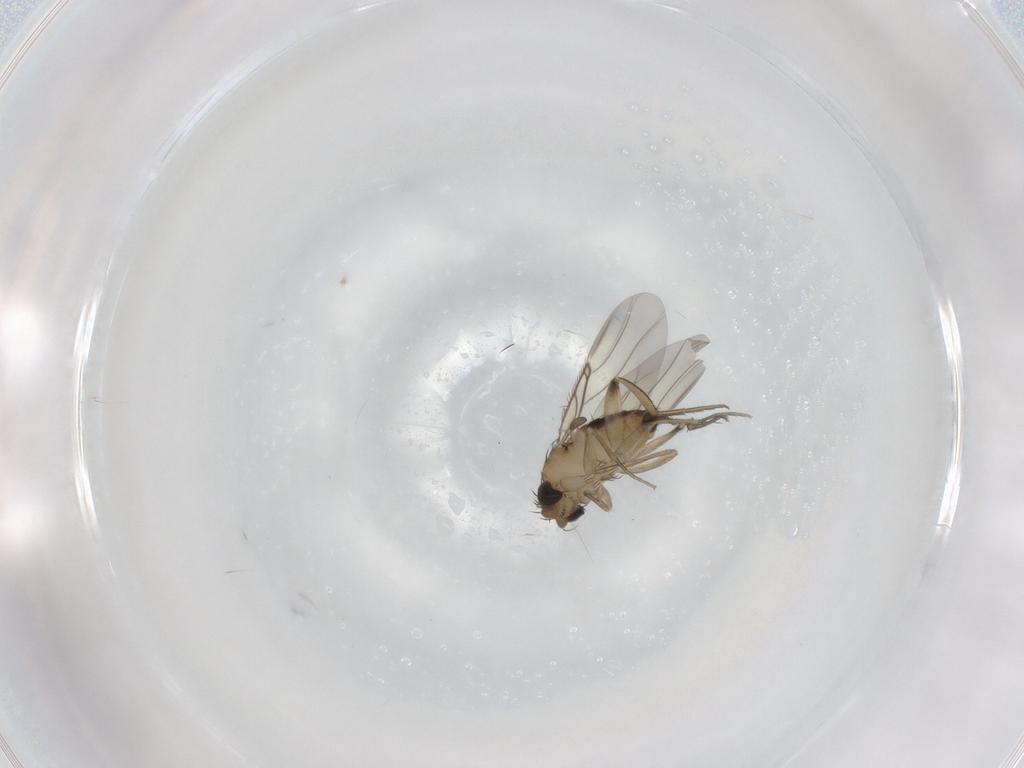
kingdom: Animalia
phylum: Arthropoda
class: Insecta
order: Diptera
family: Phoridae
